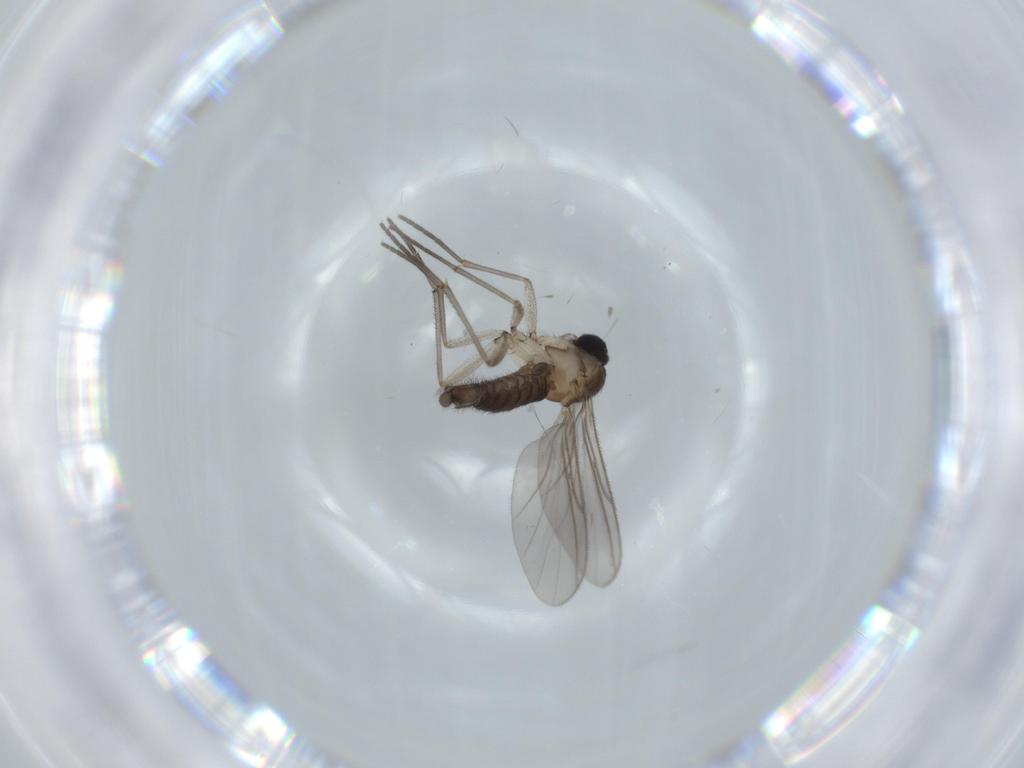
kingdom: Animalia
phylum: Arthropoda
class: Insecta
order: Diptera
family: Sciaridae
